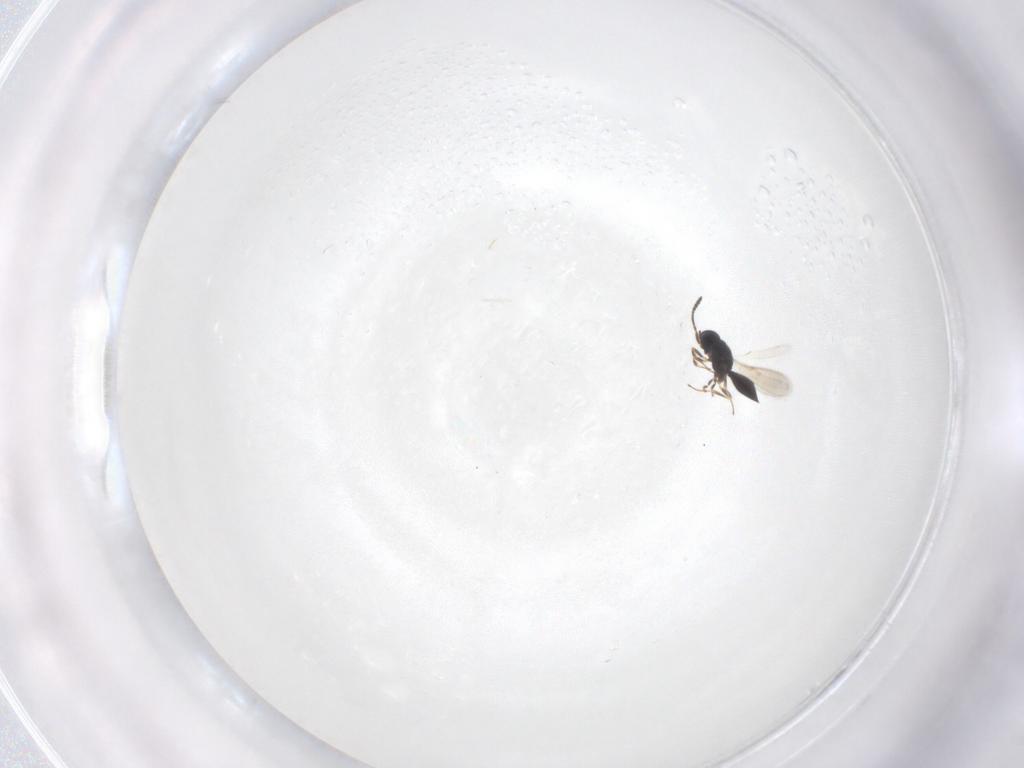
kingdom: Animalia
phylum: Arthropoda
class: Insecta
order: Hymenoptera
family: Scelionidae
